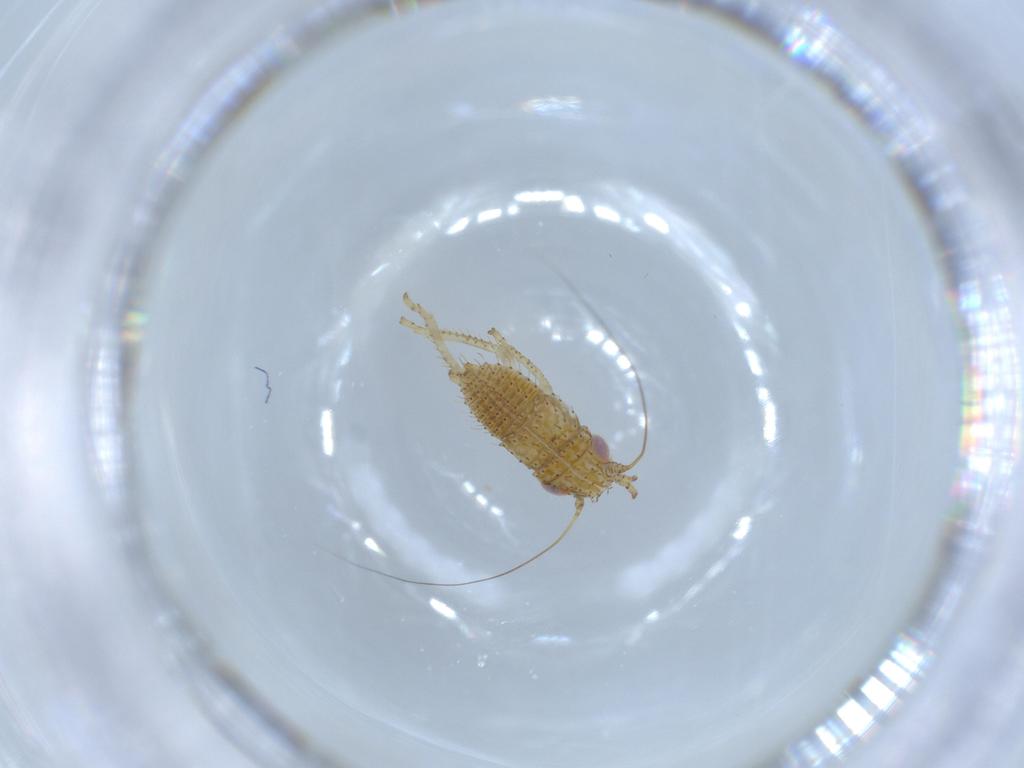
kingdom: Animalia
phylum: Arthropoda
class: Insecta
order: Hemiptera
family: Cicadellidae
